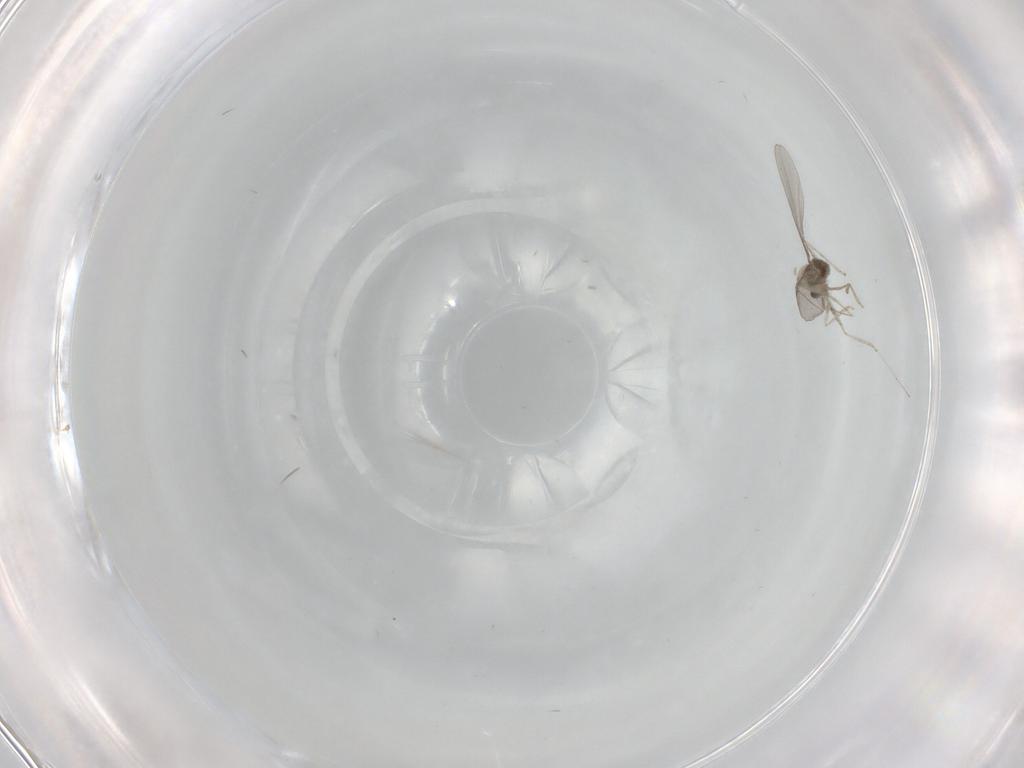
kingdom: Animalia
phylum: Arthropoda
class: Insecta
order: Diptera
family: Cecidomyiidae
